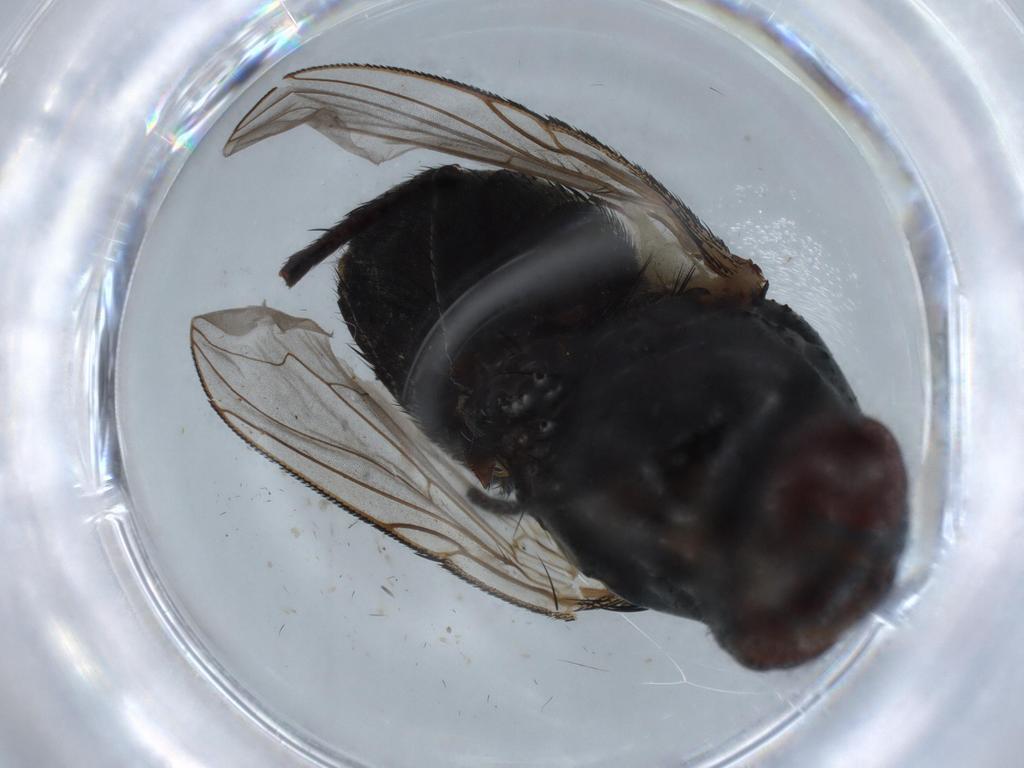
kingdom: Animalia
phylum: Arthropoda
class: Insecta
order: Diptera
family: Ephydridae
